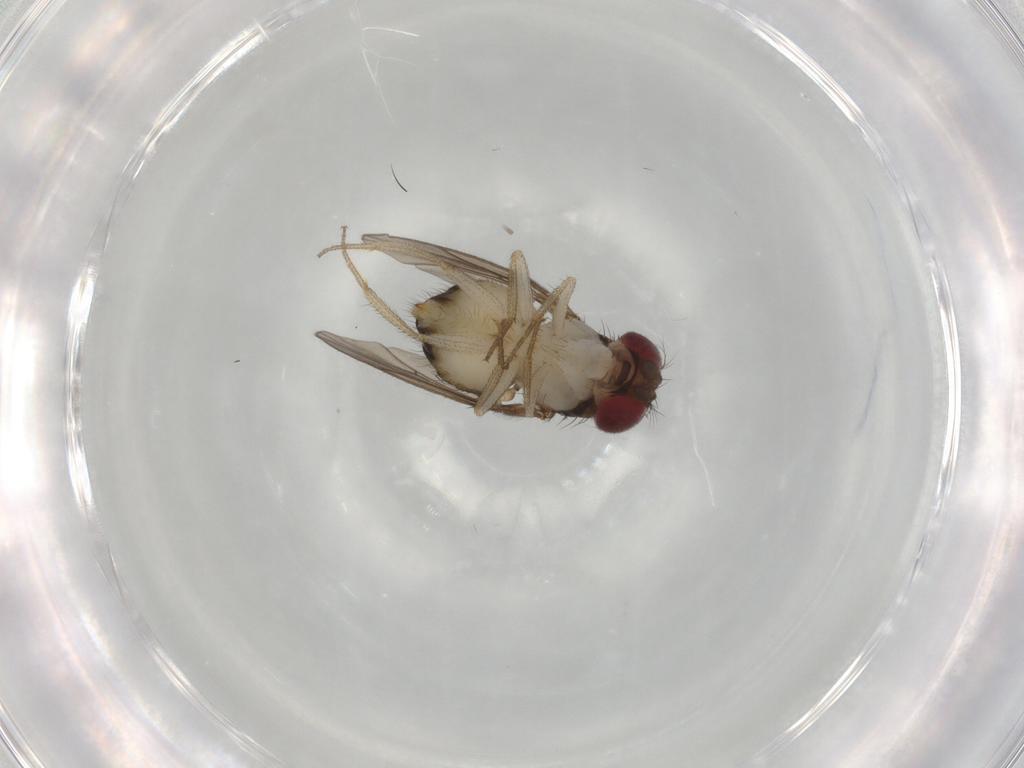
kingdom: Animalia
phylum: Arthropoda
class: Insecta
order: Diptera
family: Drosophilidae
